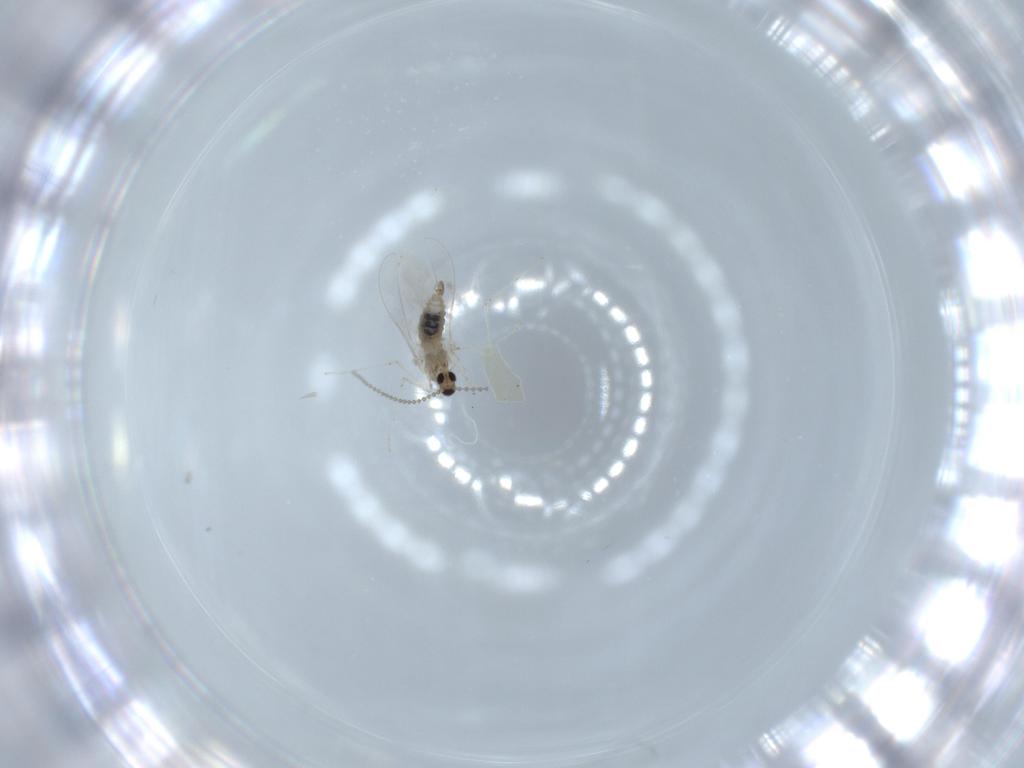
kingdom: Animalia
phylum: Arthropoda
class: Insecta
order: Diptera
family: Cecidomyiidae
